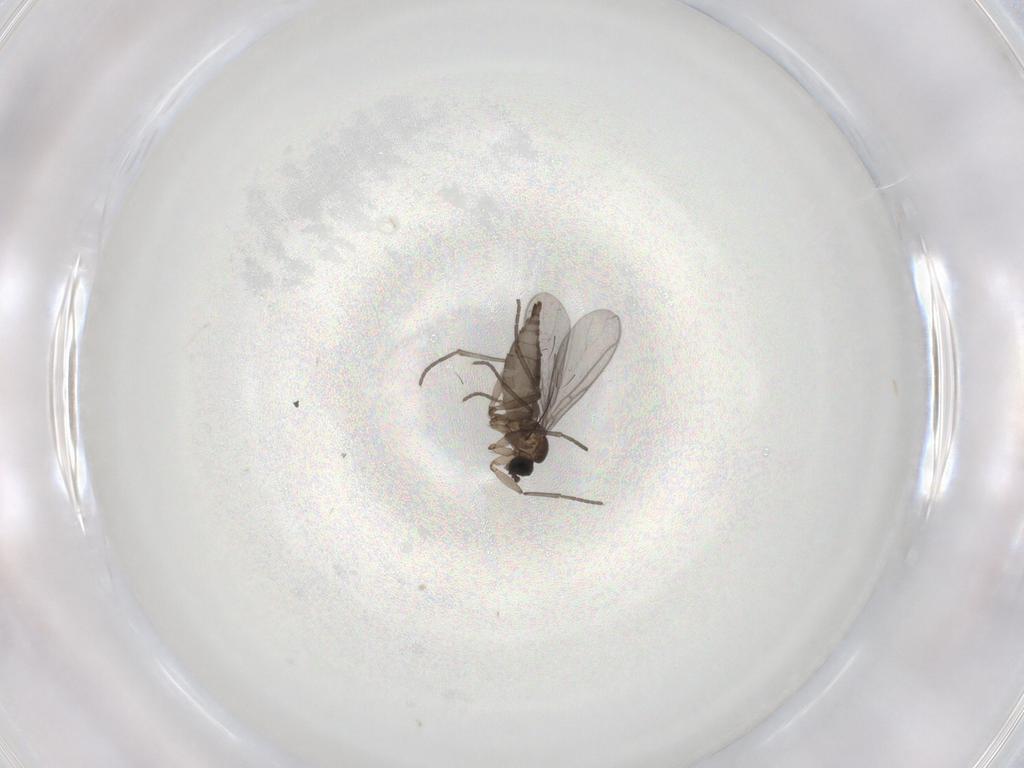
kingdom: Animalia
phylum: Arthropoda
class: Insecta
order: Diptera
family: Chironomidae
